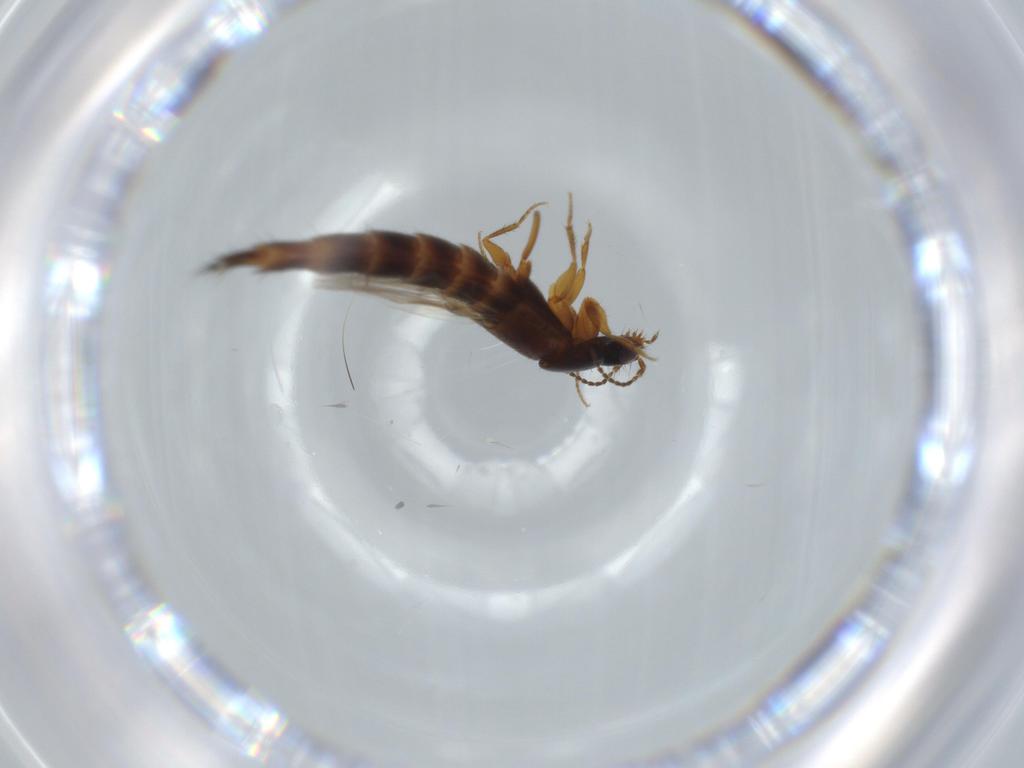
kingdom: Animalia
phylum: Arthropoda
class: Insecta
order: Coleoptera
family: Staphylinidae
